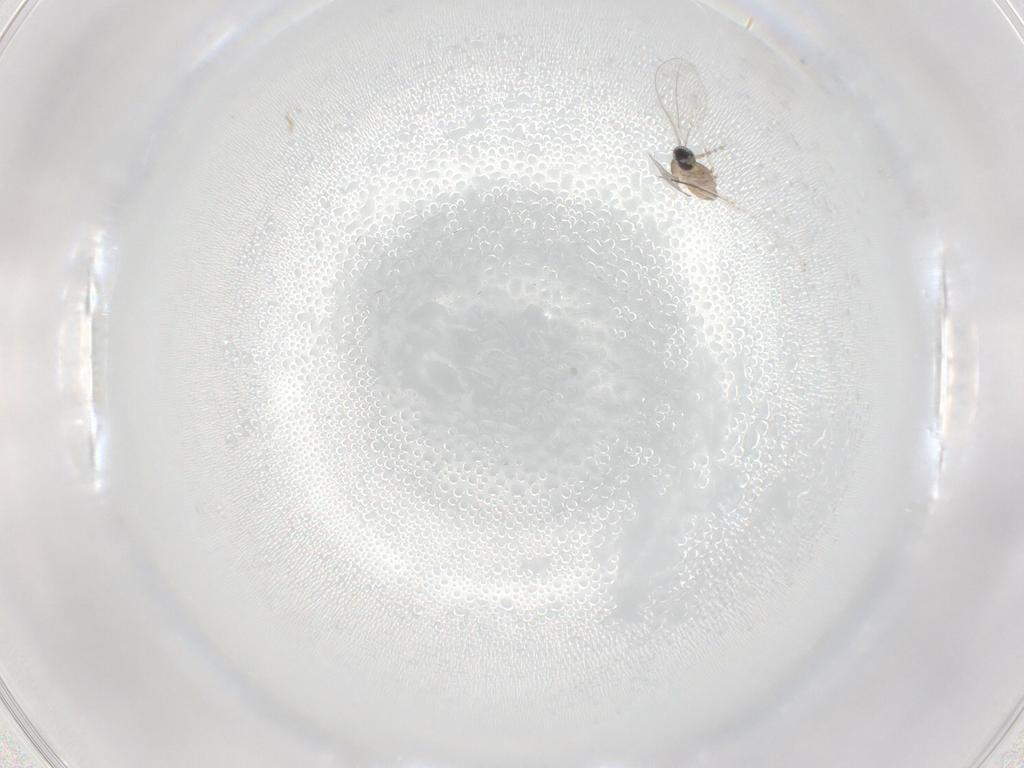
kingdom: Animalia
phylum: Arthropoda
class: Insecta
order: Diptera
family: Cecidomyiidae
